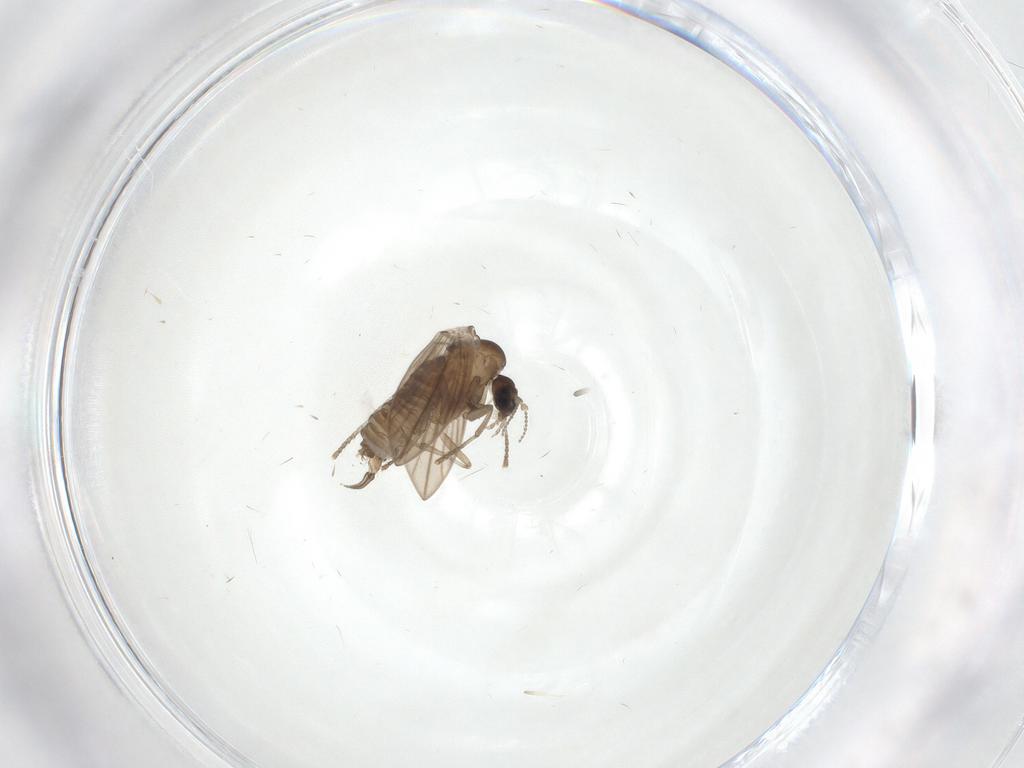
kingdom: Animalia
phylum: Arthropoda
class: Insecta
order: Diptera
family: Psychodidae
